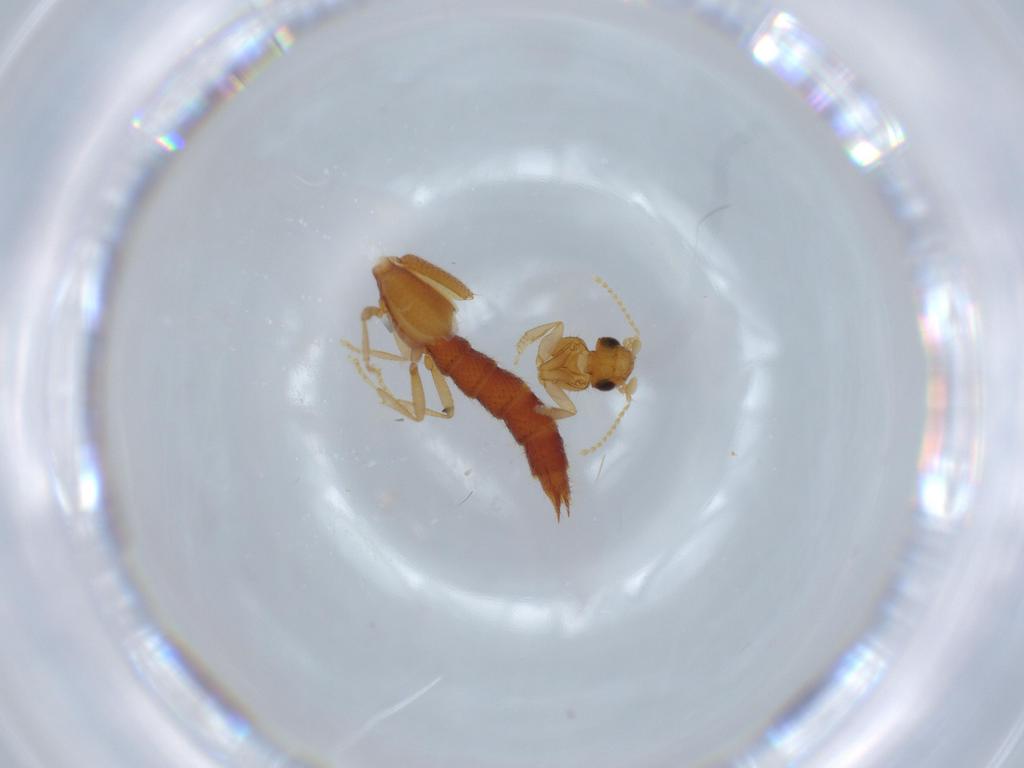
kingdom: Animalia
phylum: Arthropoda
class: Insecta
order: Coleoptera
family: Staphylinidae
